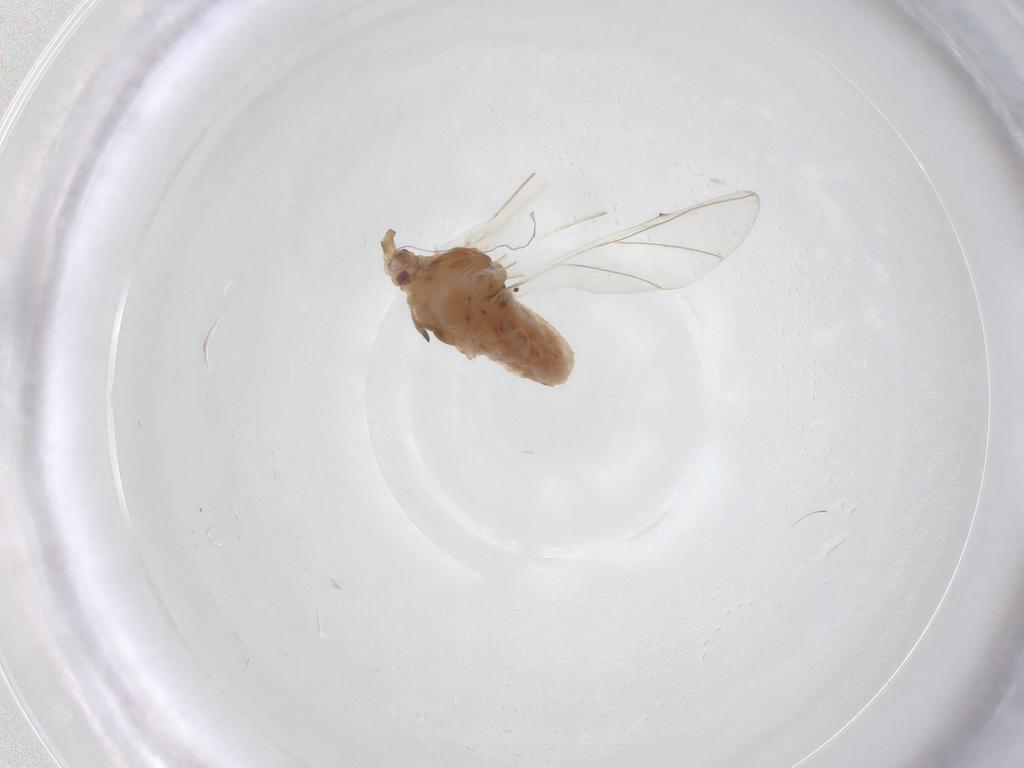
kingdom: Animalia
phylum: Arthropoda
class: Insecta
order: Hemiptera
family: Aphididae
